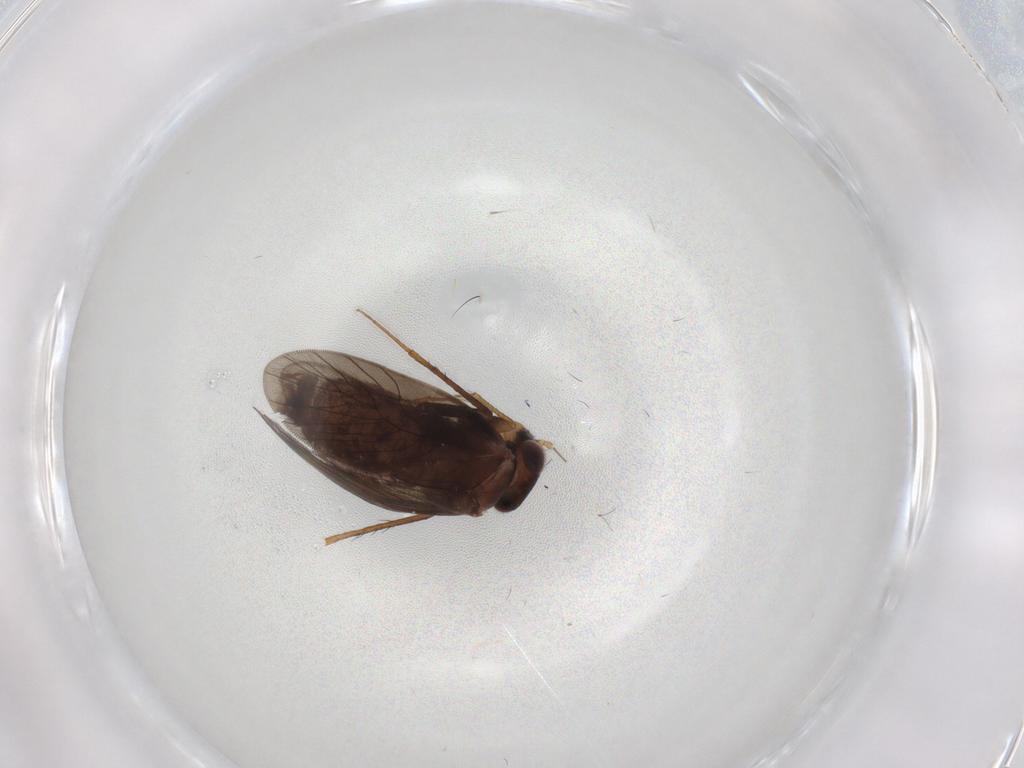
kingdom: Animalia
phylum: Arthropoda
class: Insecta
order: Psocodea
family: Lepidopsocidae
